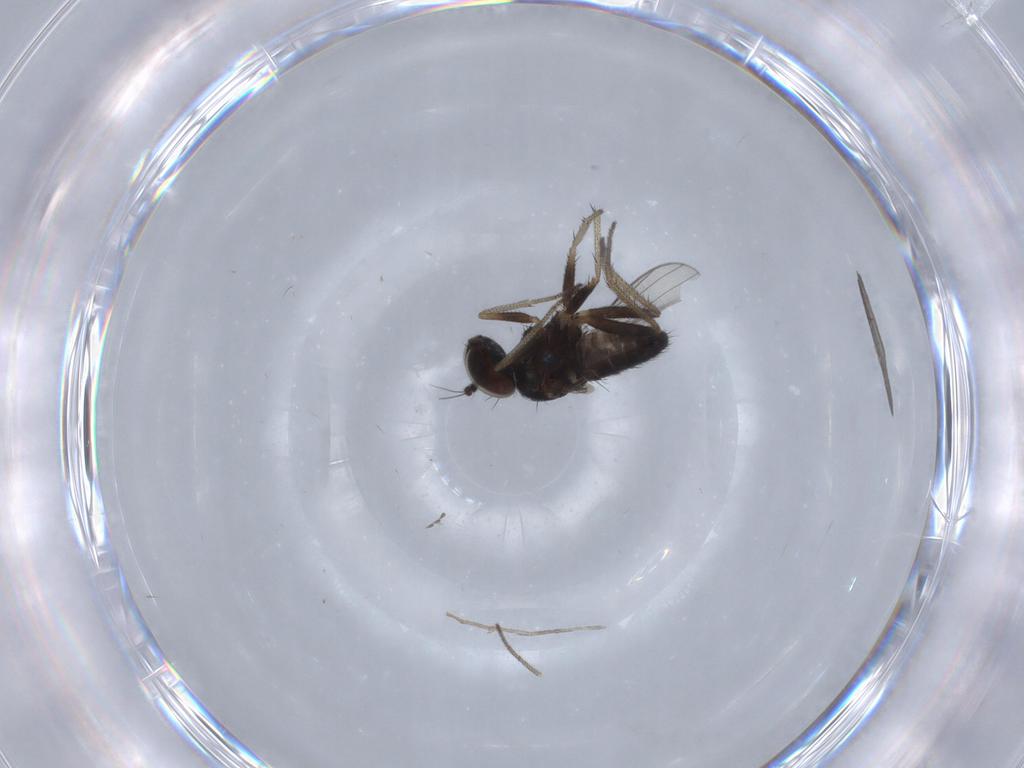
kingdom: Animalia
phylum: Arthropoda
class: Insecta
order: Diptera
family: Dolichopodidae
